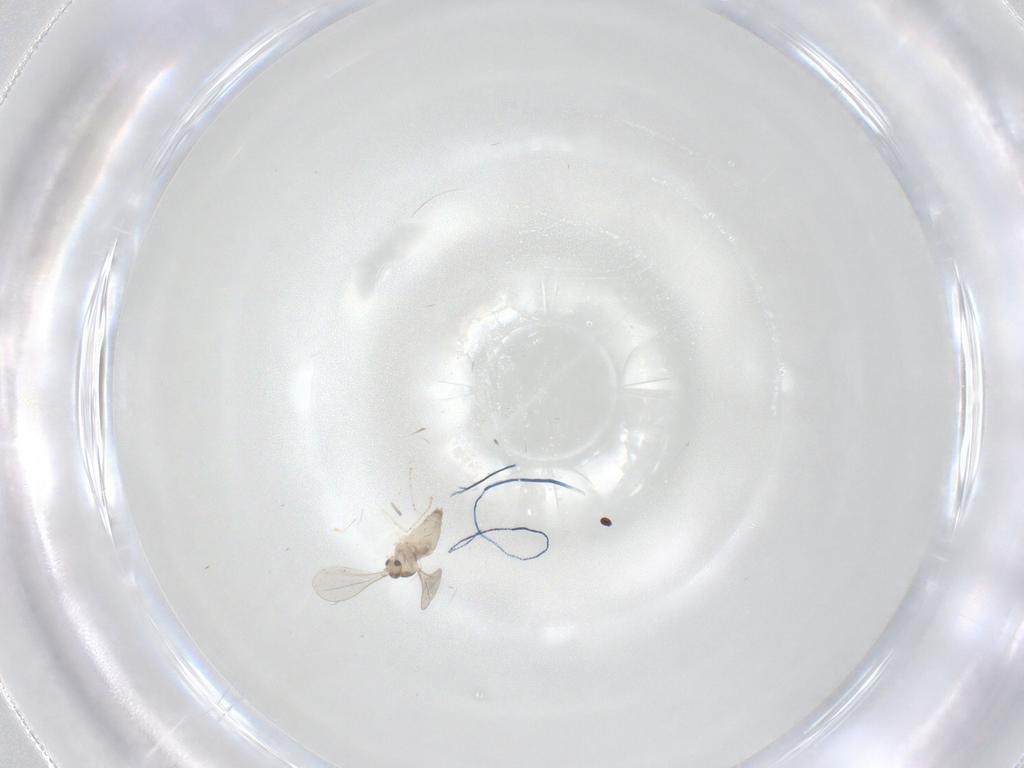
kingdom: Animalia
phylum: Arthropoda
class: Insecta
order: Diptera
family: Cecidomyiidae
